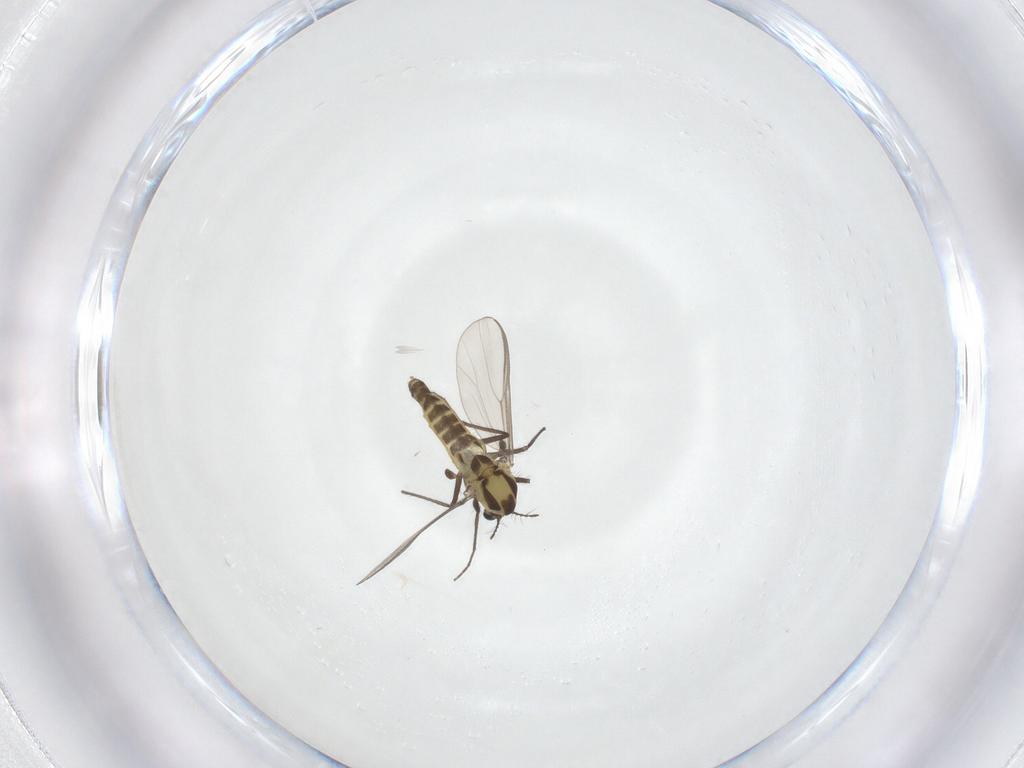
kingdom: Animalia
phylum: Arthropoda
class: Insecta
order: Diptera
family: Chironomidae
